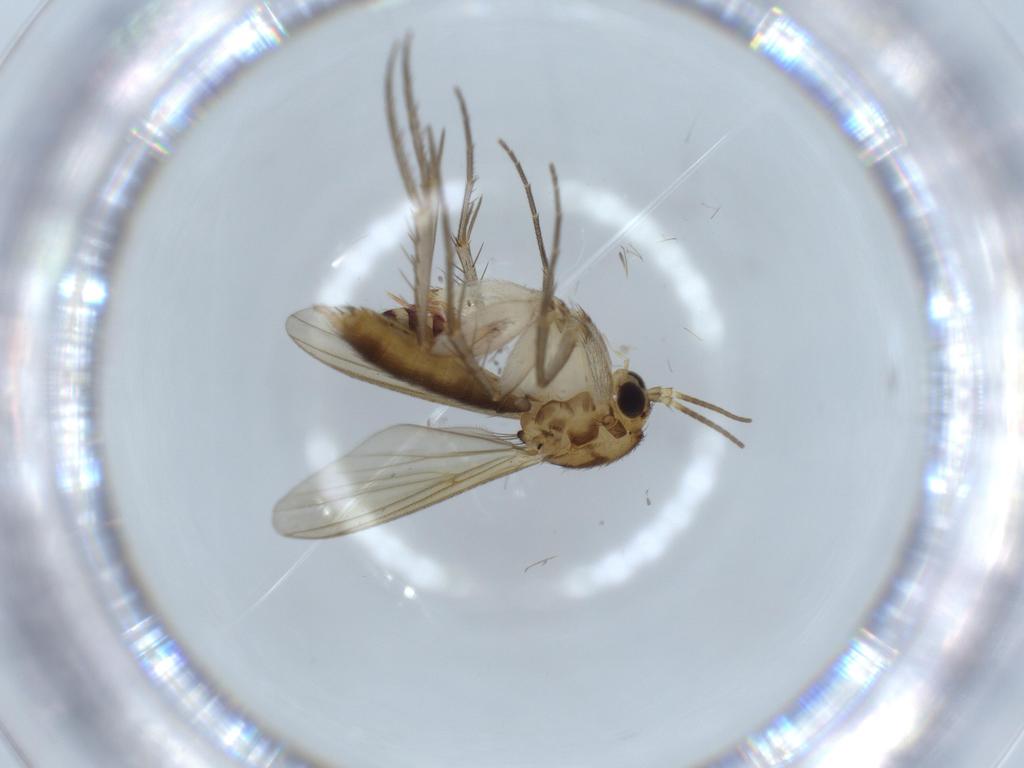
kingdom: Animalia
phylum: Arthropoda
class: Insecta
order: Diptera
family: Mycetophilidae
